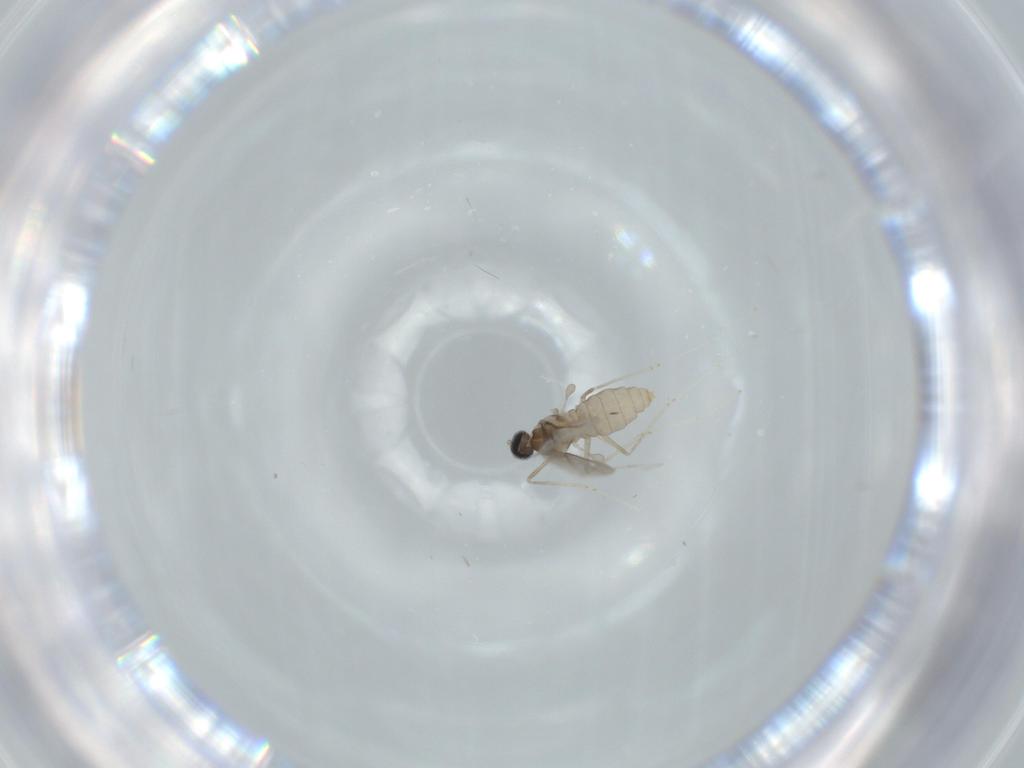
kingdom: Animalia
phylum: Arthropoda
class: Insecta
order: Diptera
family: Cecidomyiidae
